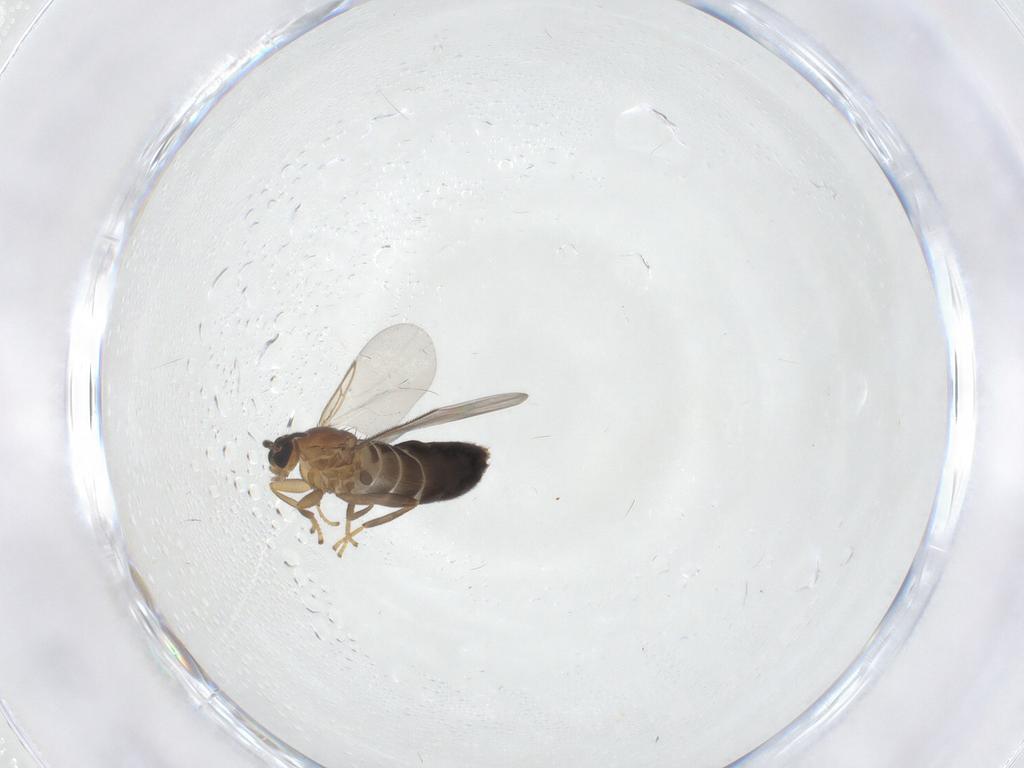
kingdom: Animalia
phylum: Arthropoda
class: Insecta
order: Diptera
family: Scatopsidae
